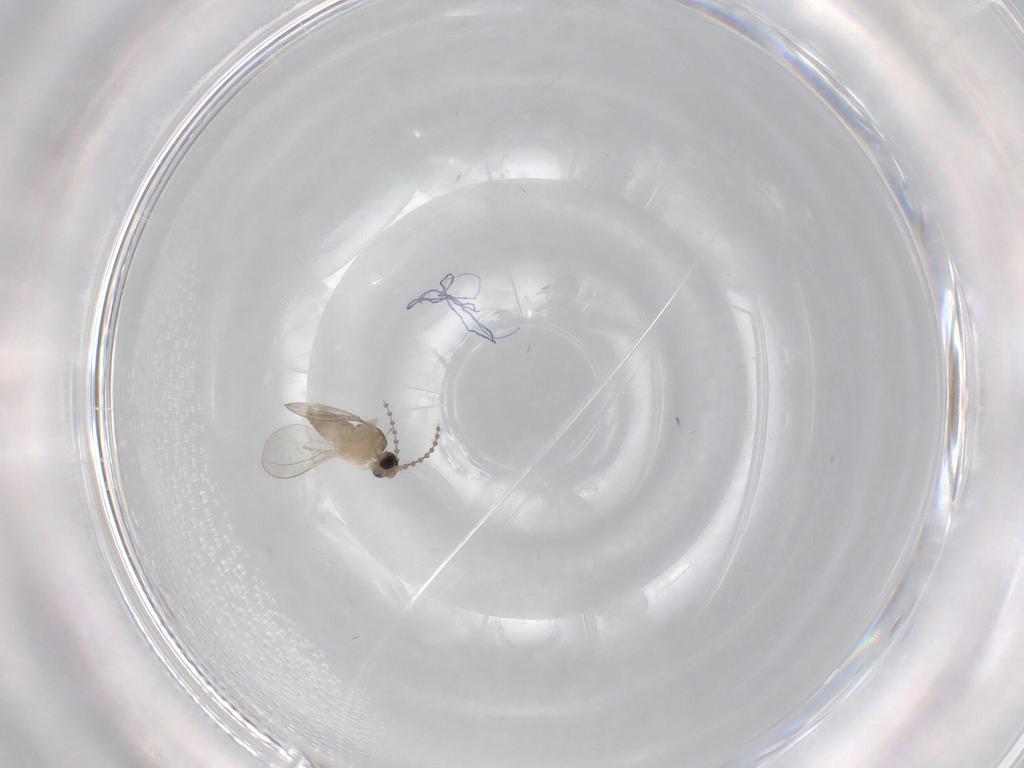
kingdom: Animalia
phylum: Arthropoda
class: Insecta
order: Diptera
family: Cecidomyiidae
